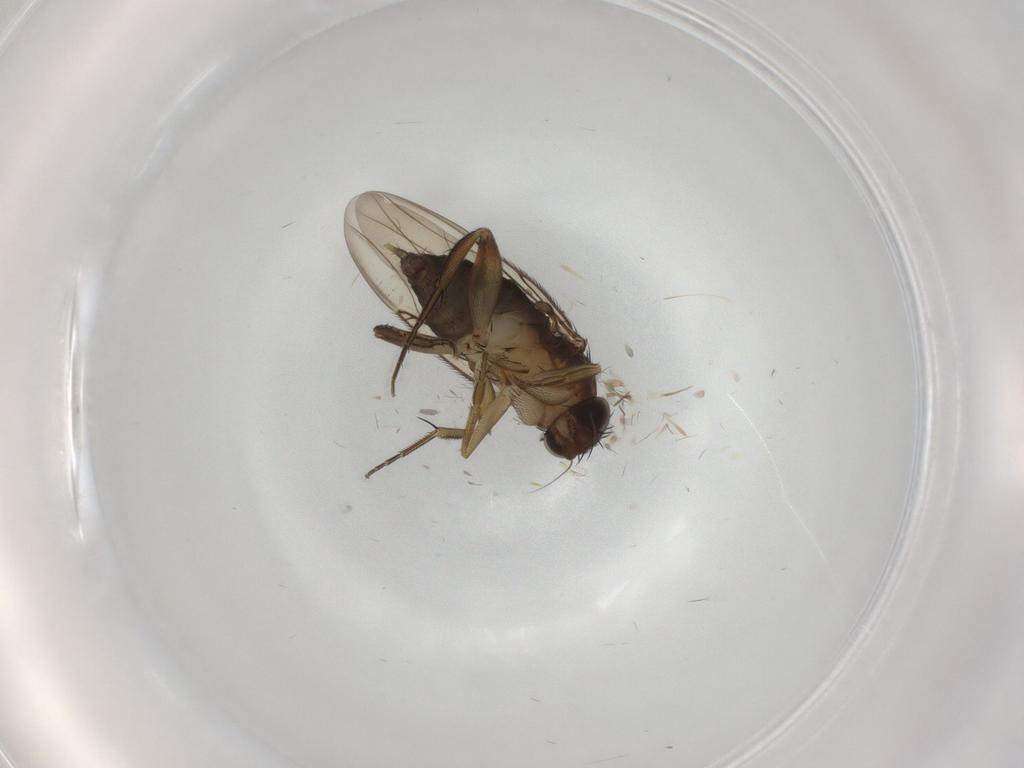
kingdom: Animalia
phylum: Arthropoda
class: Insecta
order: Diptera
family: Phoridae
